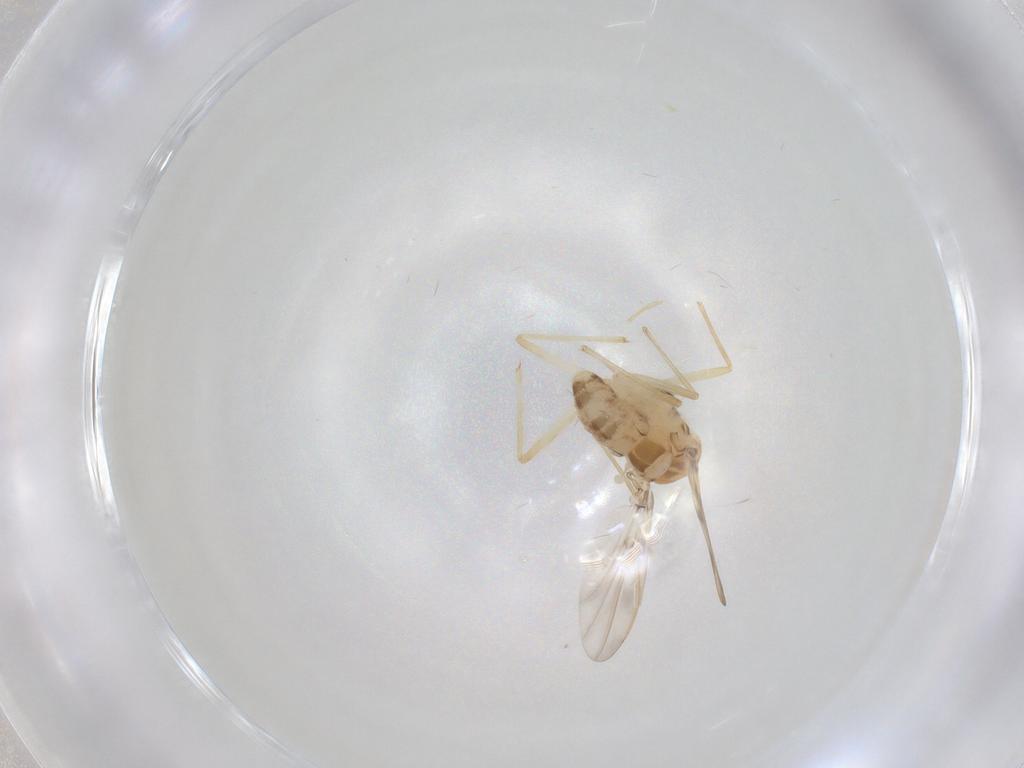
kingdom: Animalia
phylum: Arthropoda
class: Insecta
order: Diptera
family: Chironomidae
